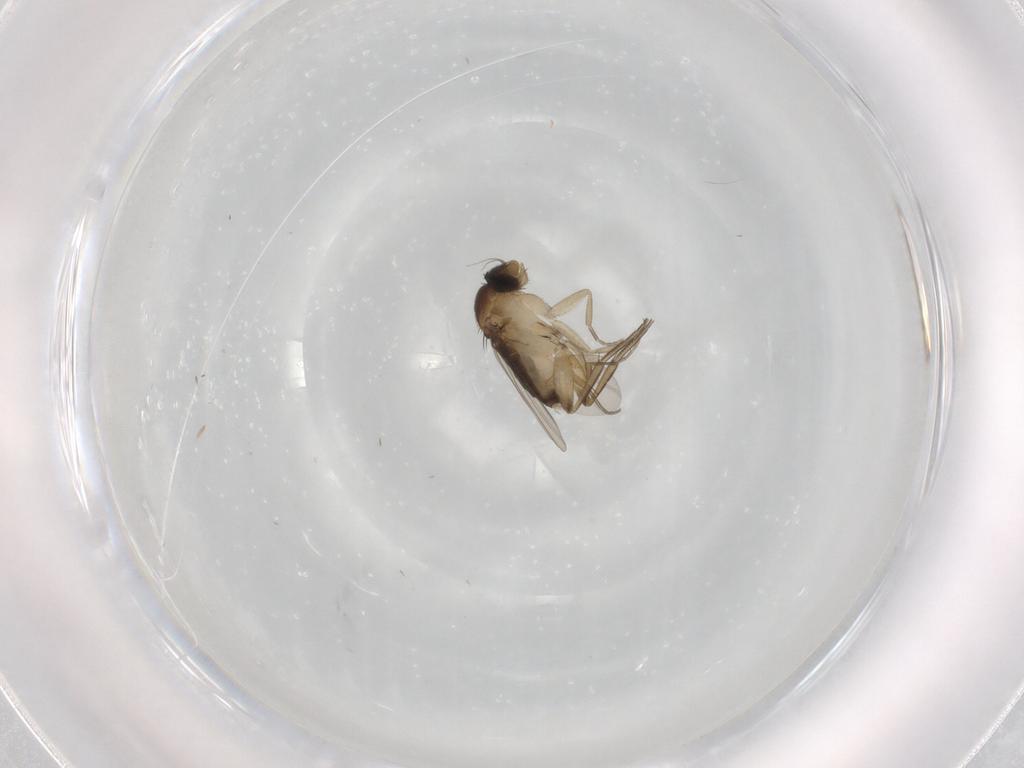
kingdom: Animalia
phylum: Arthropoda
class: Insecta
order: Diptera
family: Phoridae
